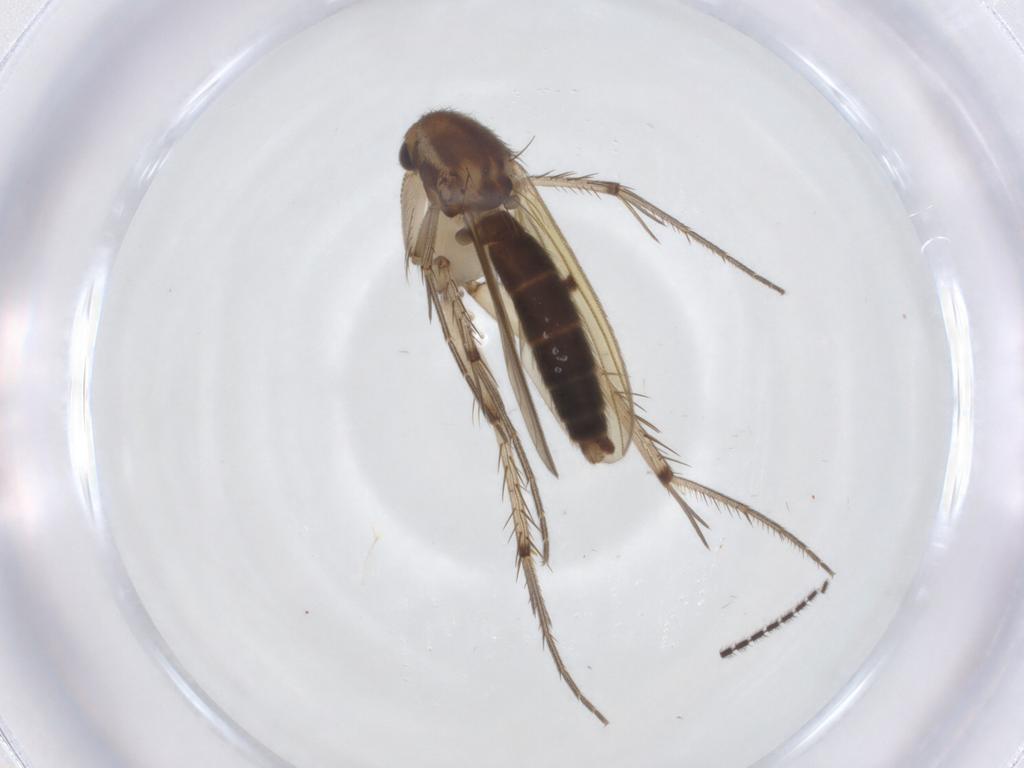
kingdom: Animalia
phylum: Arthropoda
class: Insecta
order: Diptera
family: Mycetophilidae
